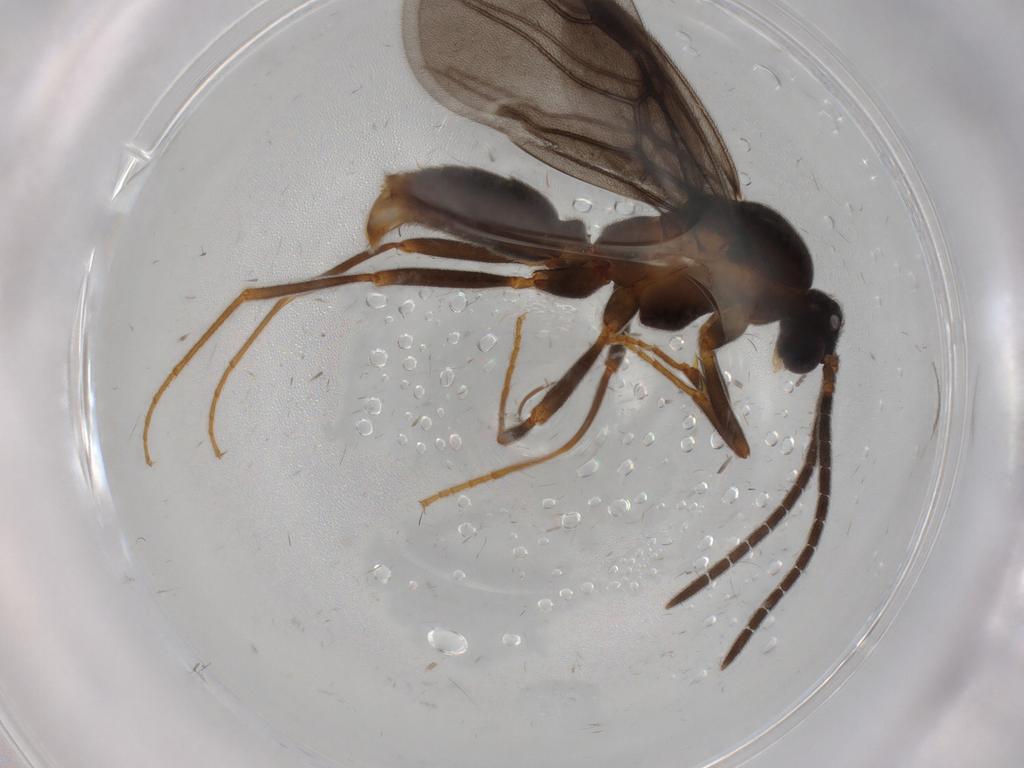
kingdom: Animalia
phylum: Arthropoda
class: Insecta
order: Hymenoptera
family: Formicidae
